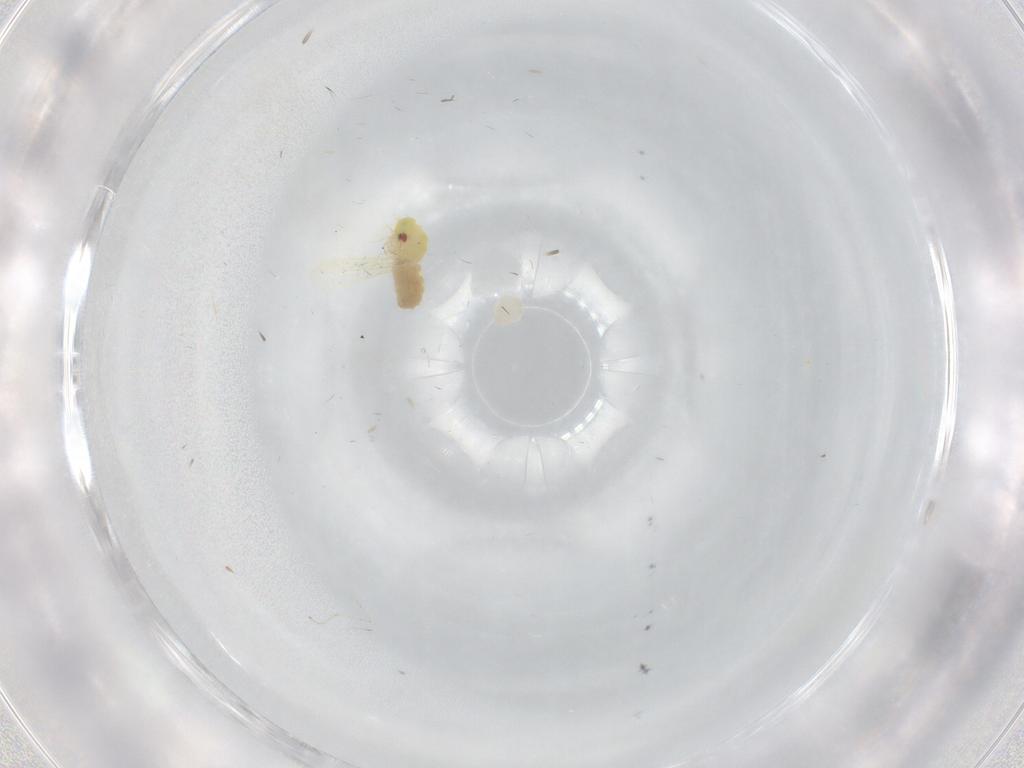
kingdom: Animalia
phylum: Arthropoda
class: Insecta
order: Hemiptera
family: Aleyrodidae
